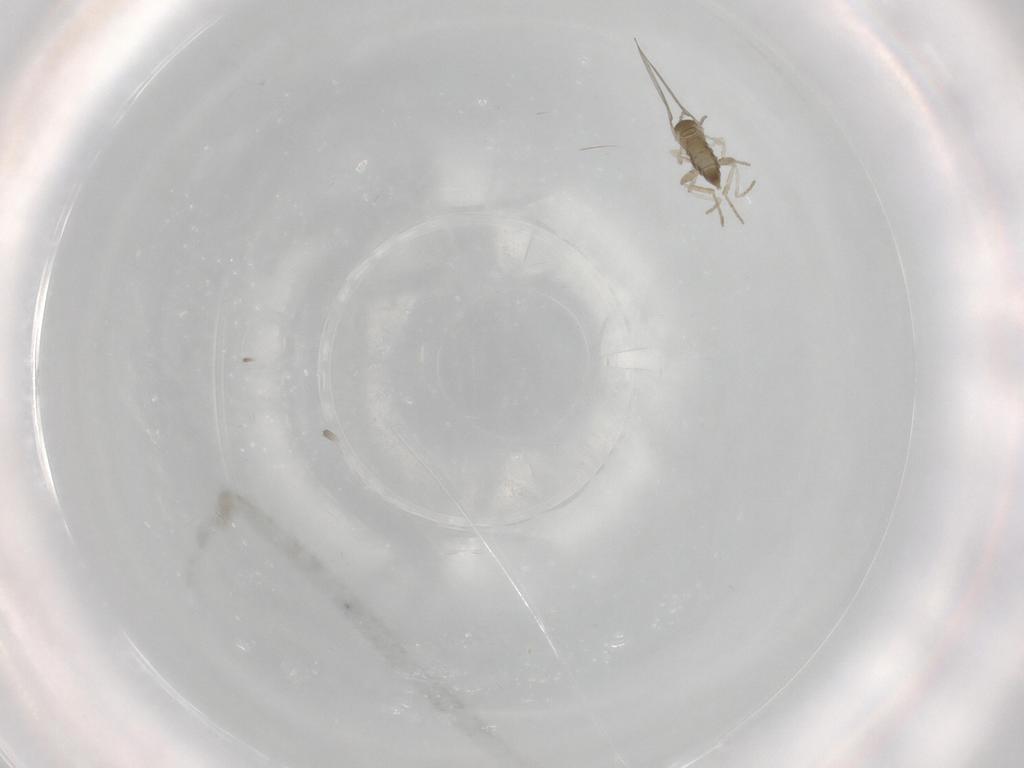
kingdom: Animalia
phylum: Arthropoda
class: Insecta
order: Diptera
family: Cecidomyiidae
